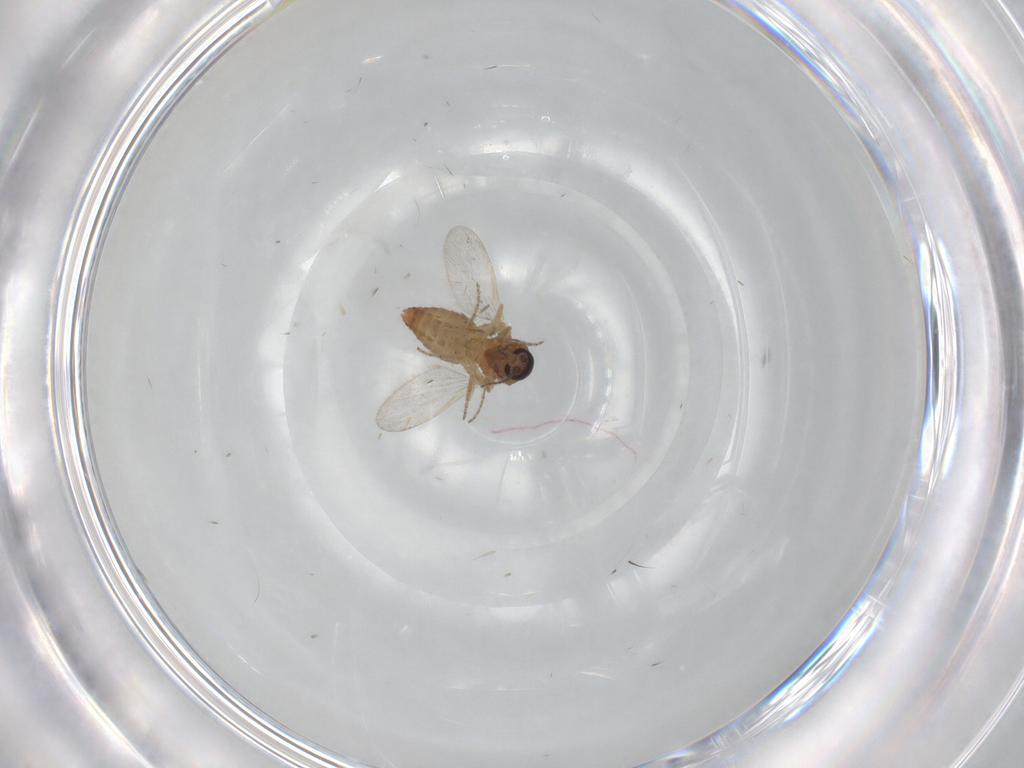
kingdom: Animalia
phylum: Arthropoda
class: Insecta
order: Diptera
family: Ceratopogonidae
